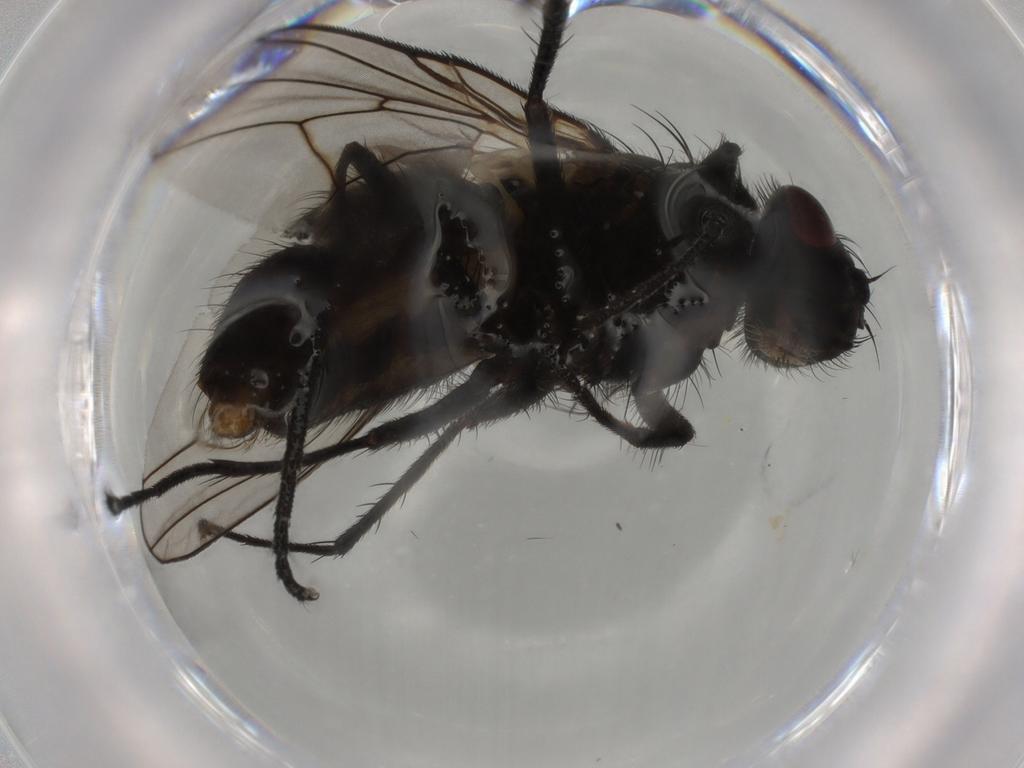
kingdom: Animalia
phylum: Arthropoda
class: Insecta
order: Diptera
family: Muscidae
